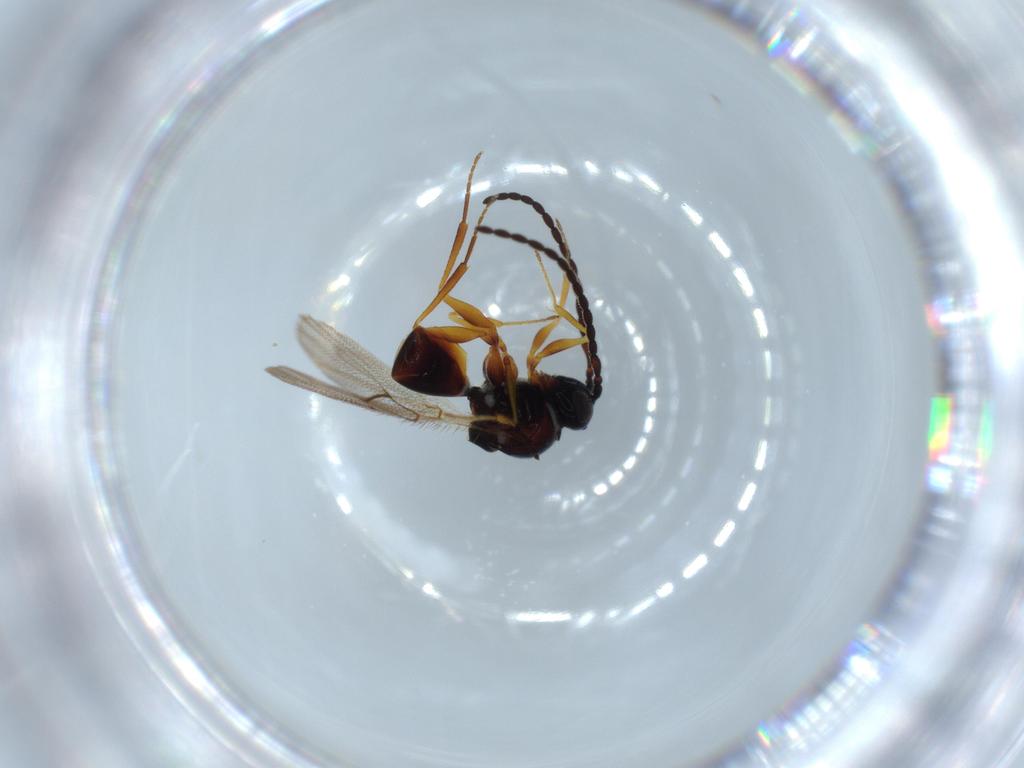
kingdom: Animalia
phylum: Arthropoda
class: Insecta
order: Hymenoptera
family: Figitidae
